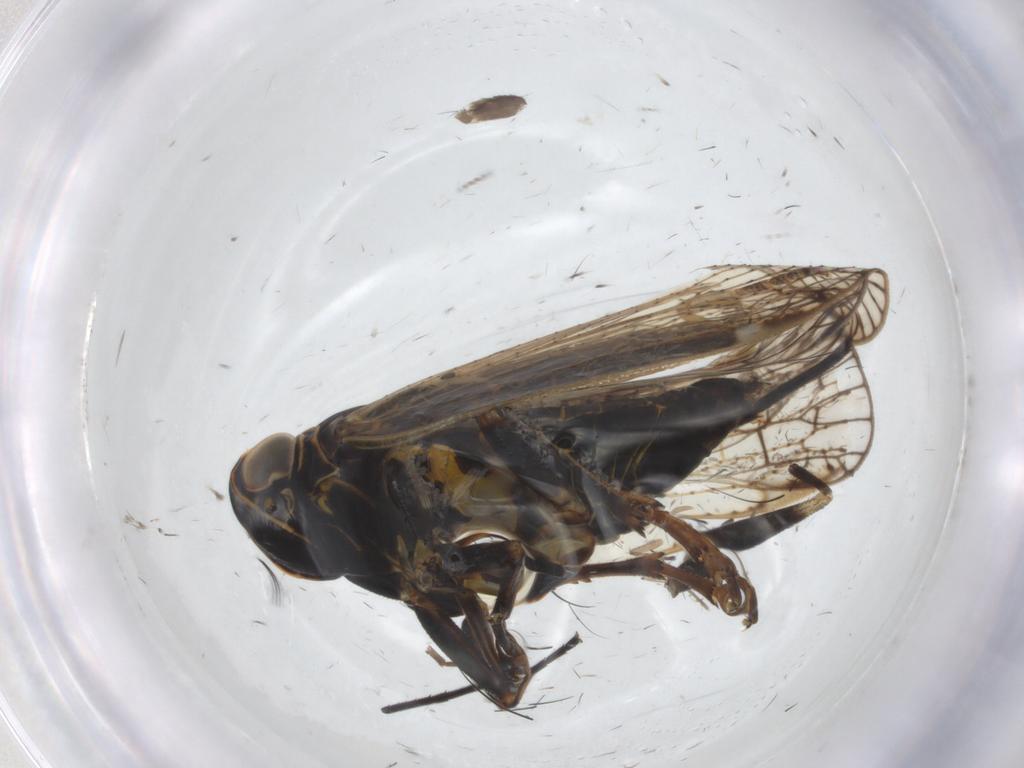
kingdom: Animalia
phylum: Arthropoda
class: Insecta
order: Hemiptera
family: Cixiidae
